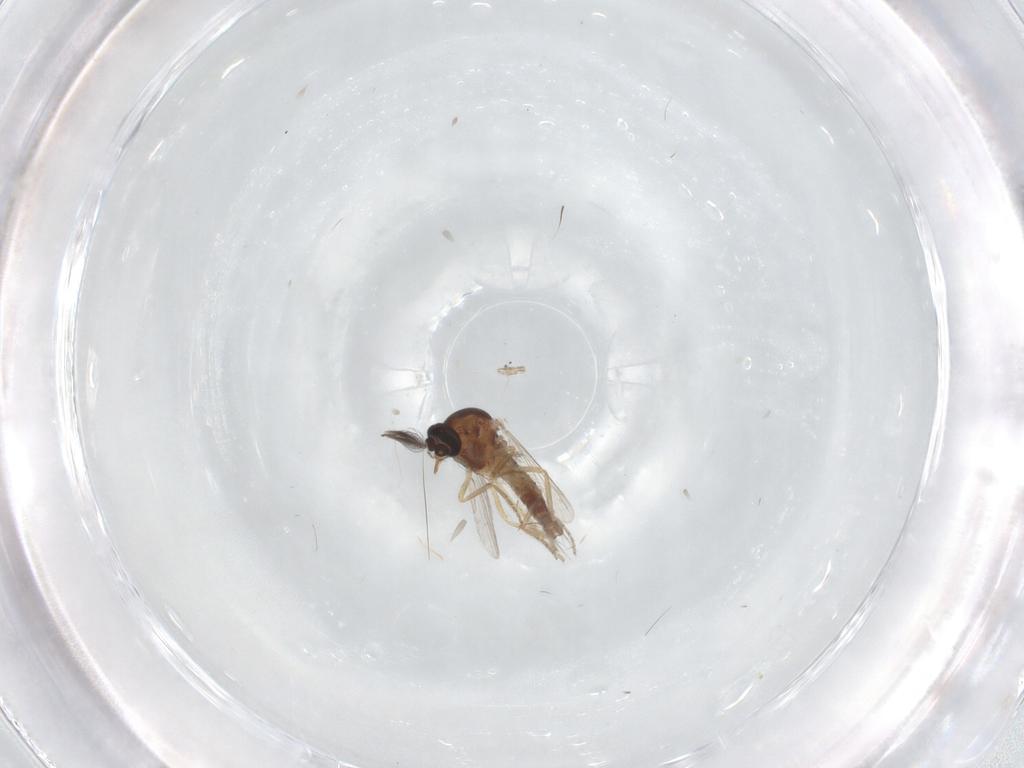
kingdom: Animalia
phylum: Arthropoda
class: Insecta
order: Diptera
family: Ceratopogonidae
